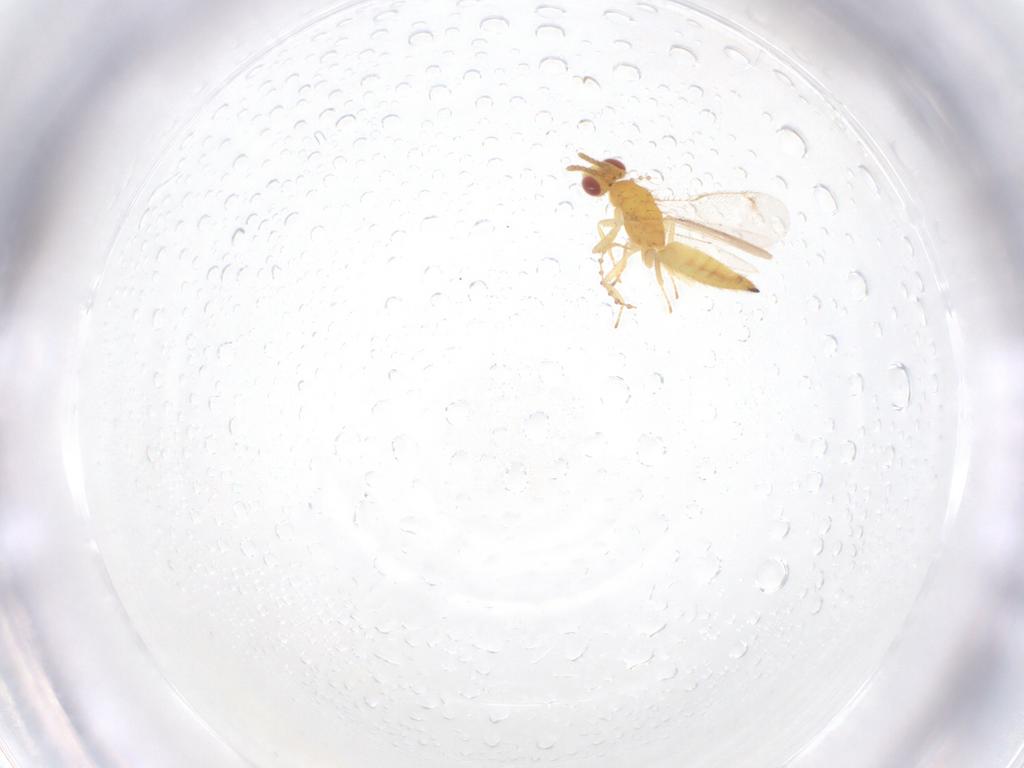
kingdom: Animalia
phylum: Arthropoda
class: Insecta
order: Hymenoptera
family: Eulophidae
